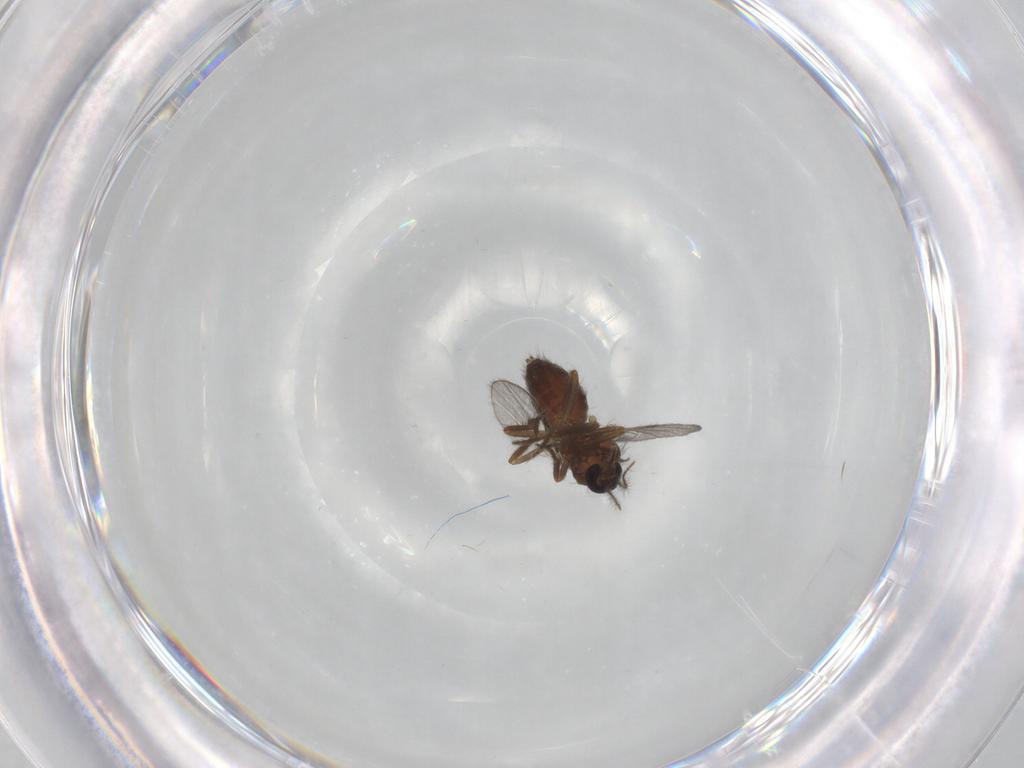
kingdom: Animalia
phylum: Arthropoda
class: Insecta
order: Diptera
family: Ceratopogonidae
